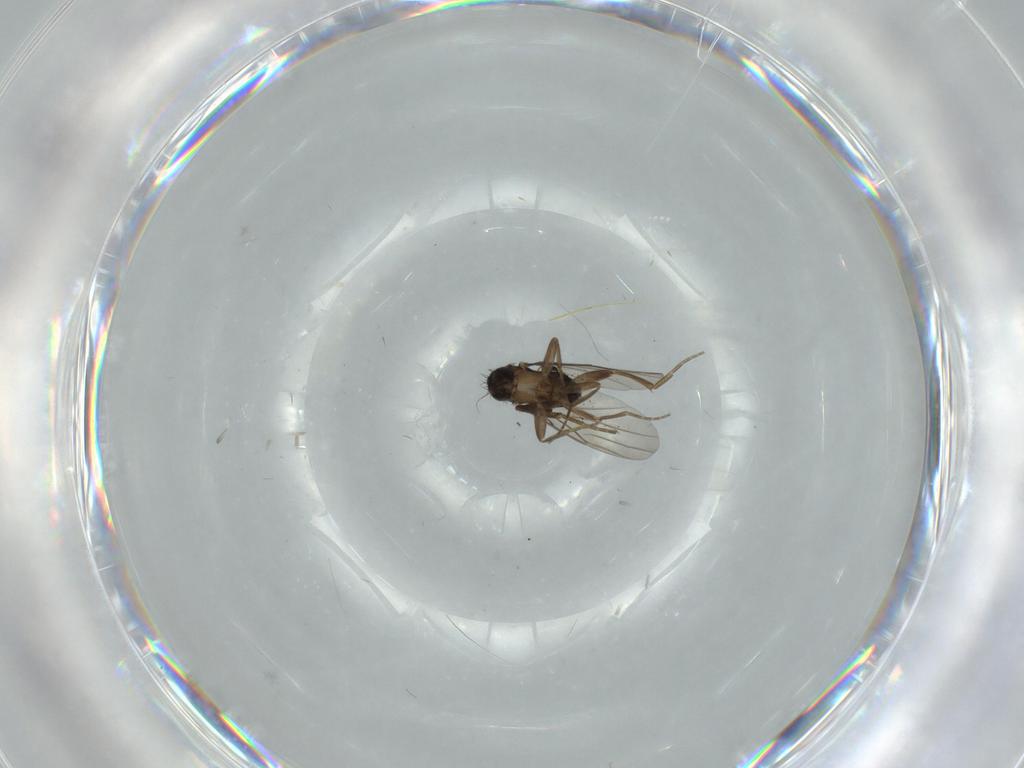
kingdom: Animalia
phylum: Arthropoda
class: Insecta
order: Diptera
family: Phoridae
